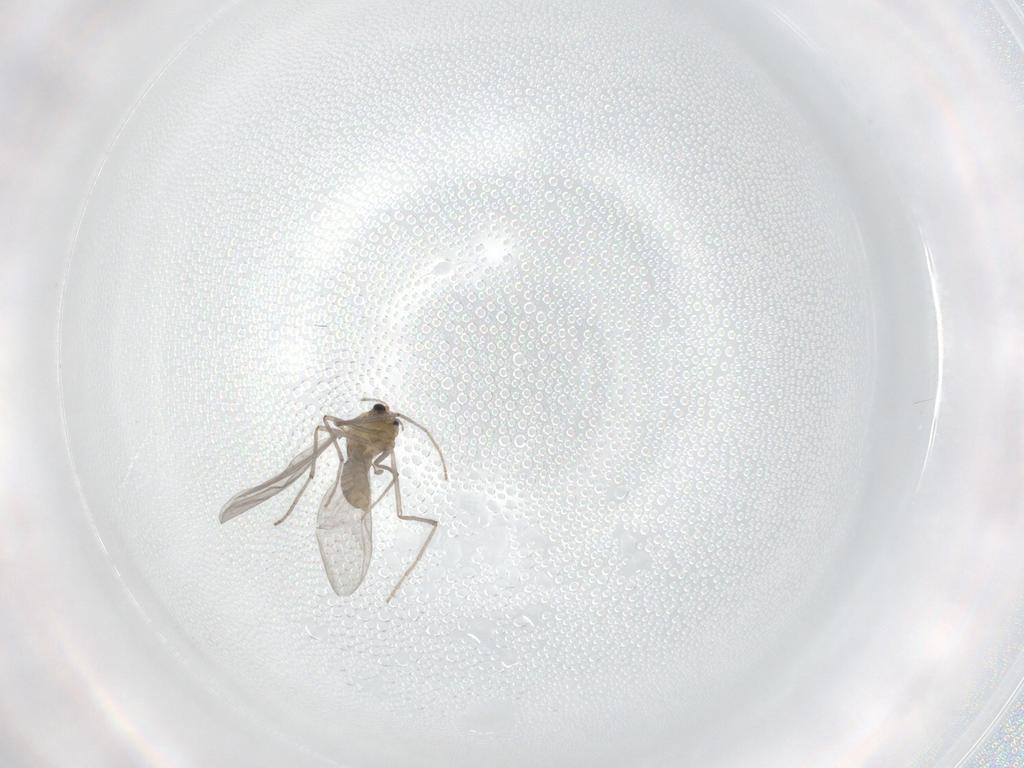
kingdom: Animalia
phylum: Arthropoda
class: Insecta
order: Diptera
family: Chironomidae
